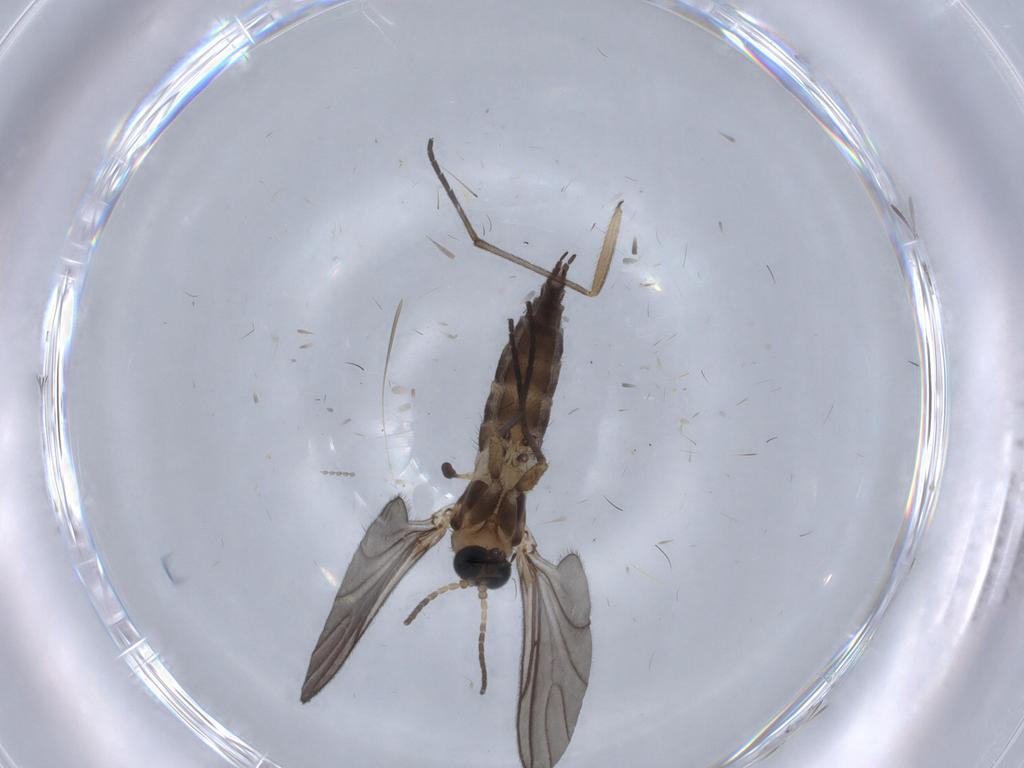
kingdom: Animalia
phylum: Arthropoda
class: Insecta
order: Diptera
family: Sciaridae
